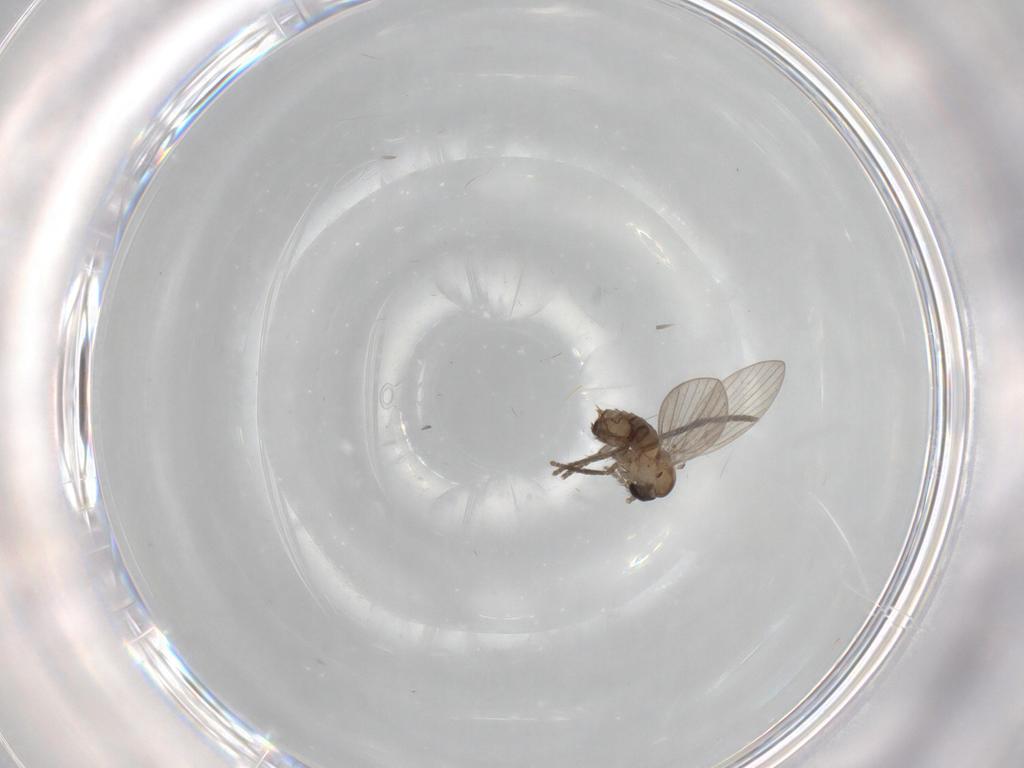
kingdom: Animalia
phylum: Arthropoda
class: Insecta
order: Diptera
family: Psychodidae
